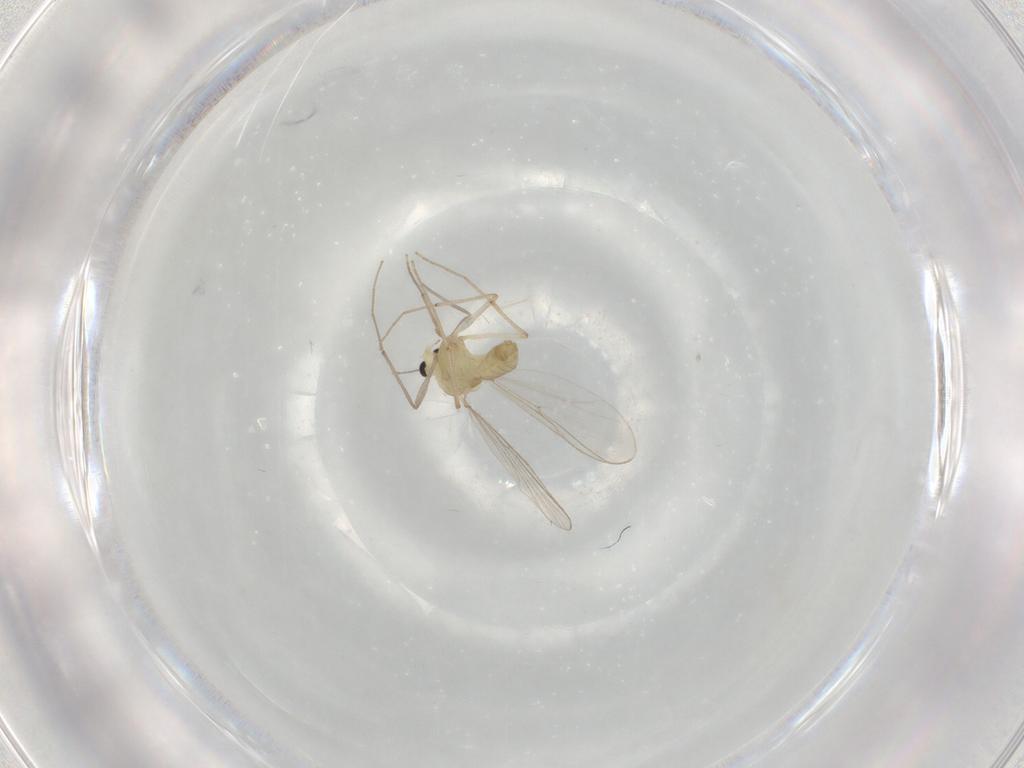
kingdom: Animalia
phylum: Arthropoda
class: Insecta
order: Diptera
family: Chironomidae
